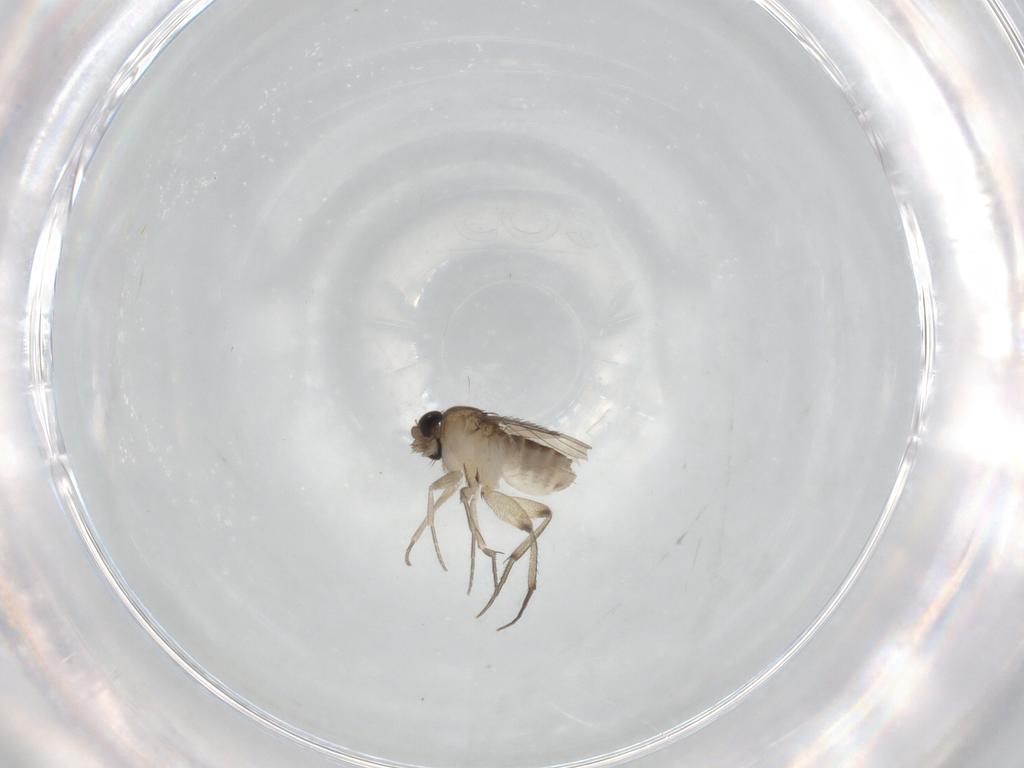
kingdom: Animalia
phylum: Arthropoda
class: Insecta
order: Diptera
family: Phoridae
